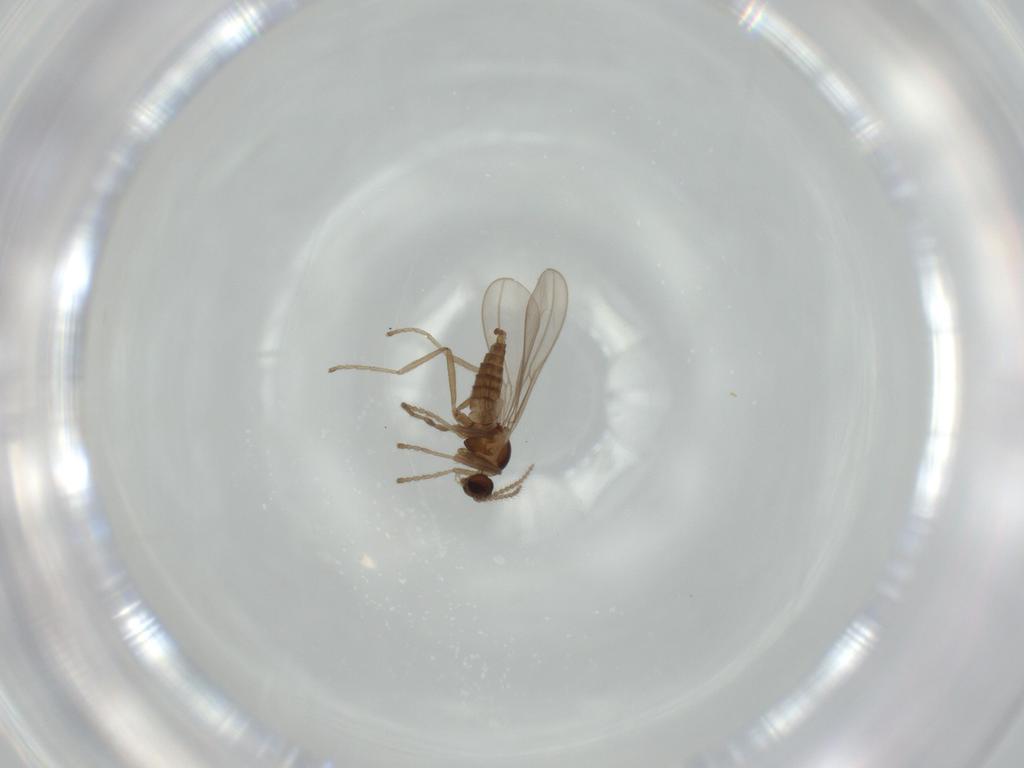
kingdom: Animalia
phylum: Arthropoda
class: Insecta
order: Diptera
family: Cecidomyiidae
